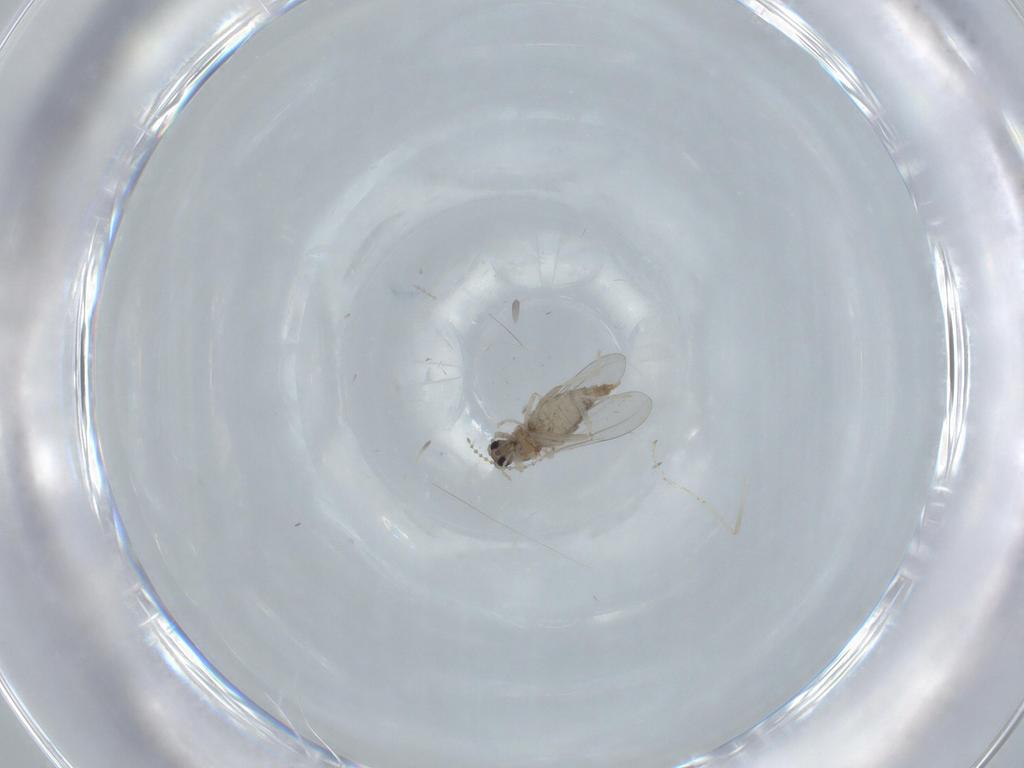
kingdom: Animalia
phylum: Arthropoda
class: Insecta
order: Diptera
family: Cecidomyiidae
